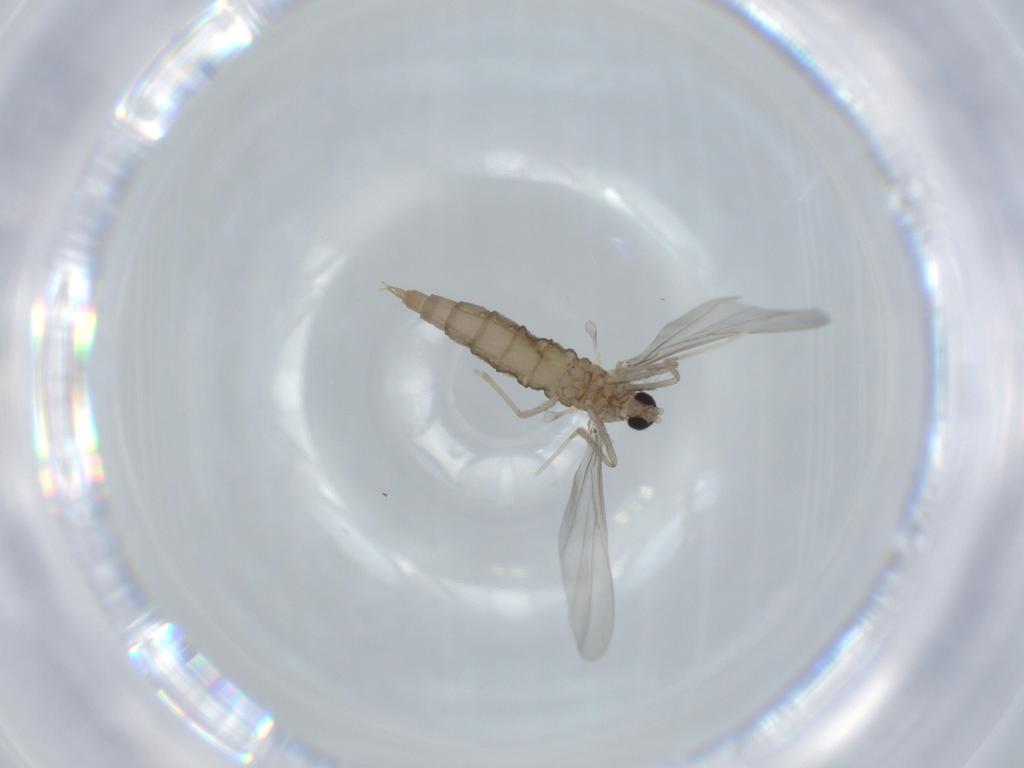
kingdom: Animalia
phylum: Arthropoda
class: Insecta
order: Diptera
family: Cecidomyiidae
